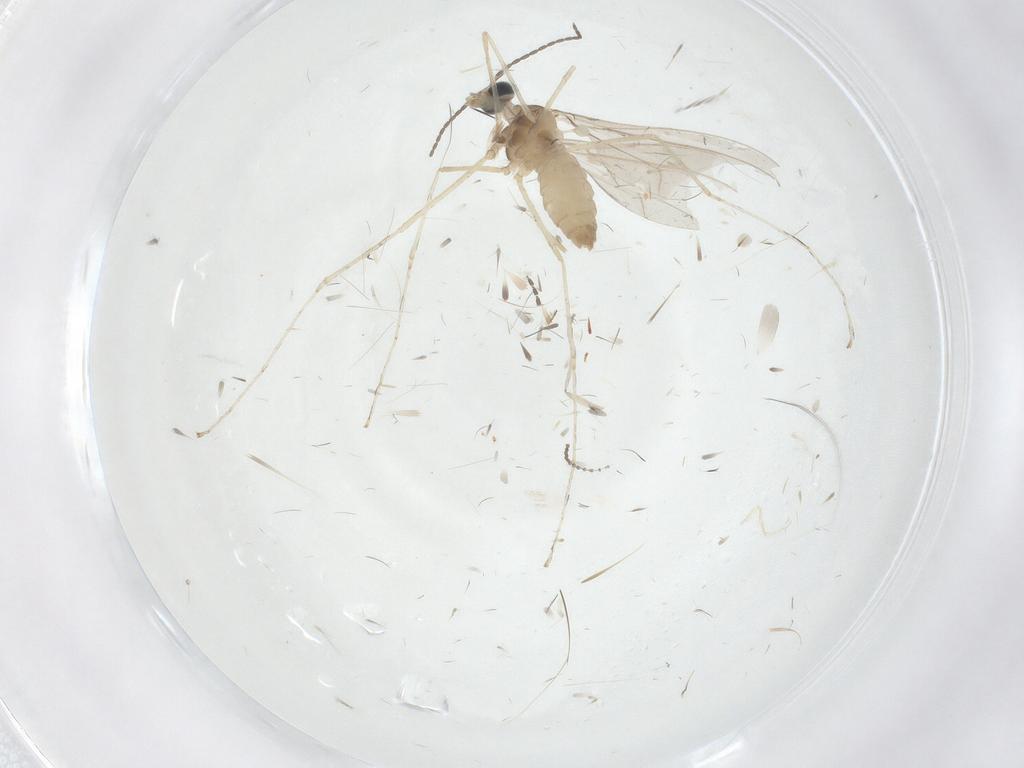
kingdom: Animalia
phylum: Arthropoda
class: Insecta
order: Diptera
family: Cecidomyiidae
